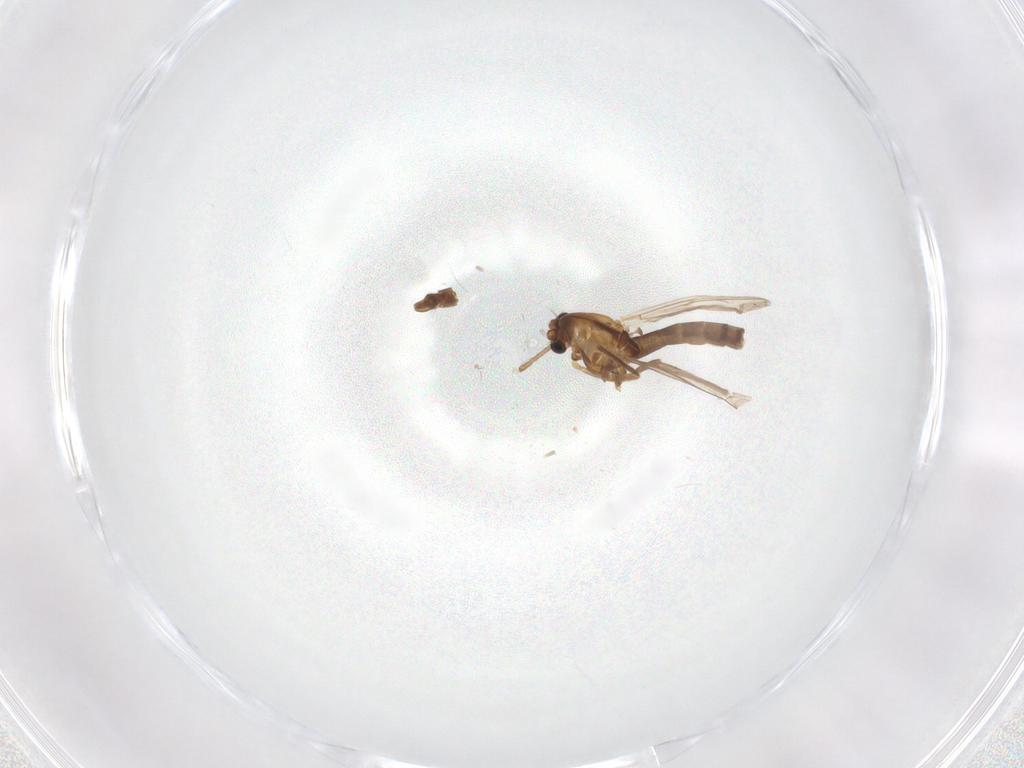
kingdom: Animalia
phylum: Arthropoda
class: Insecta
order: Diptera
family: Muscidae
